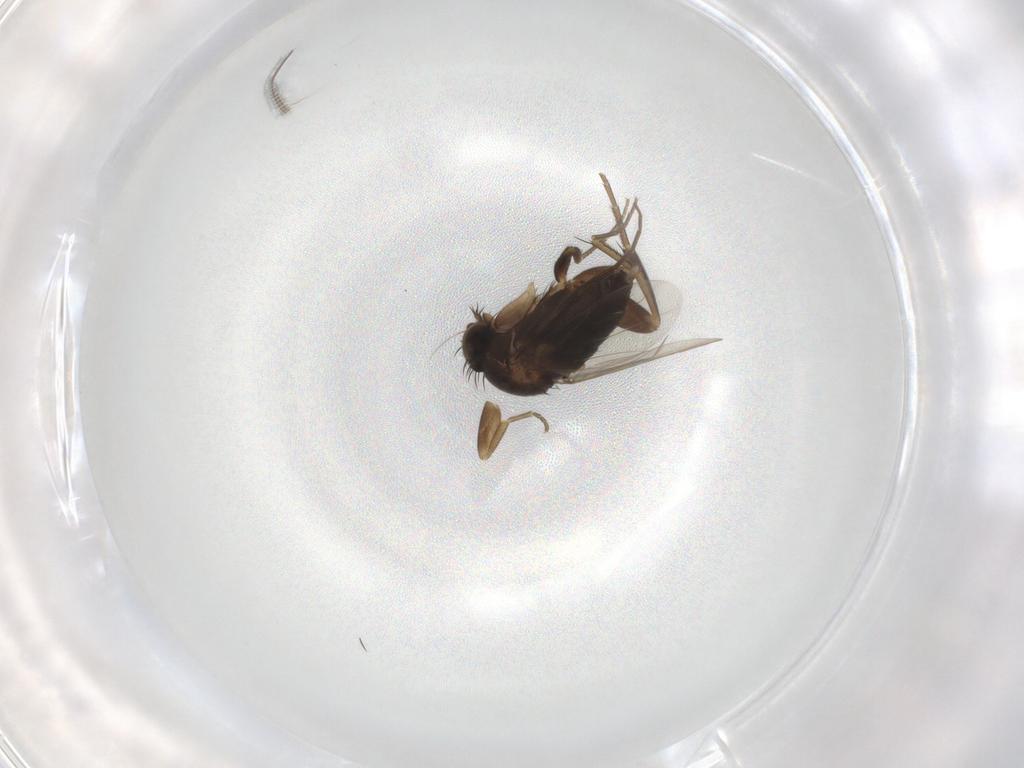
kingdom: Animalia
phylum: Arthropoda
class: Insecta
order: Diptera
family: Phoridae
